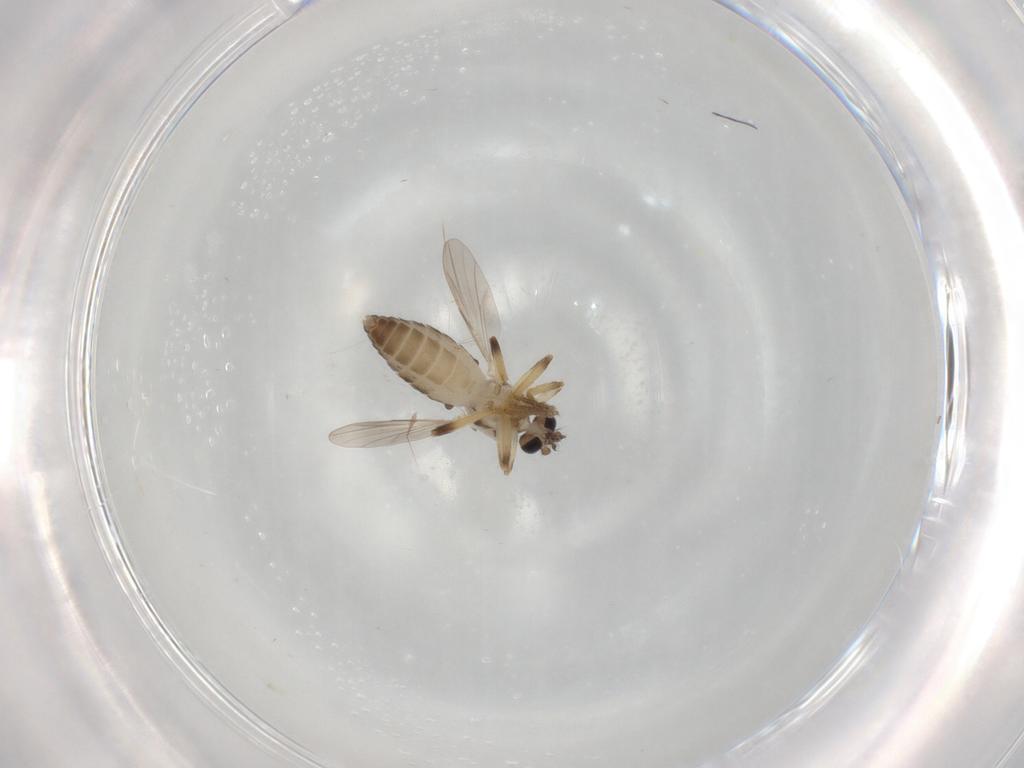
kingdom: Animalia
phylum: Arthropoda
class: Insecta
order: Diptera
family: Ceratopogonidae
